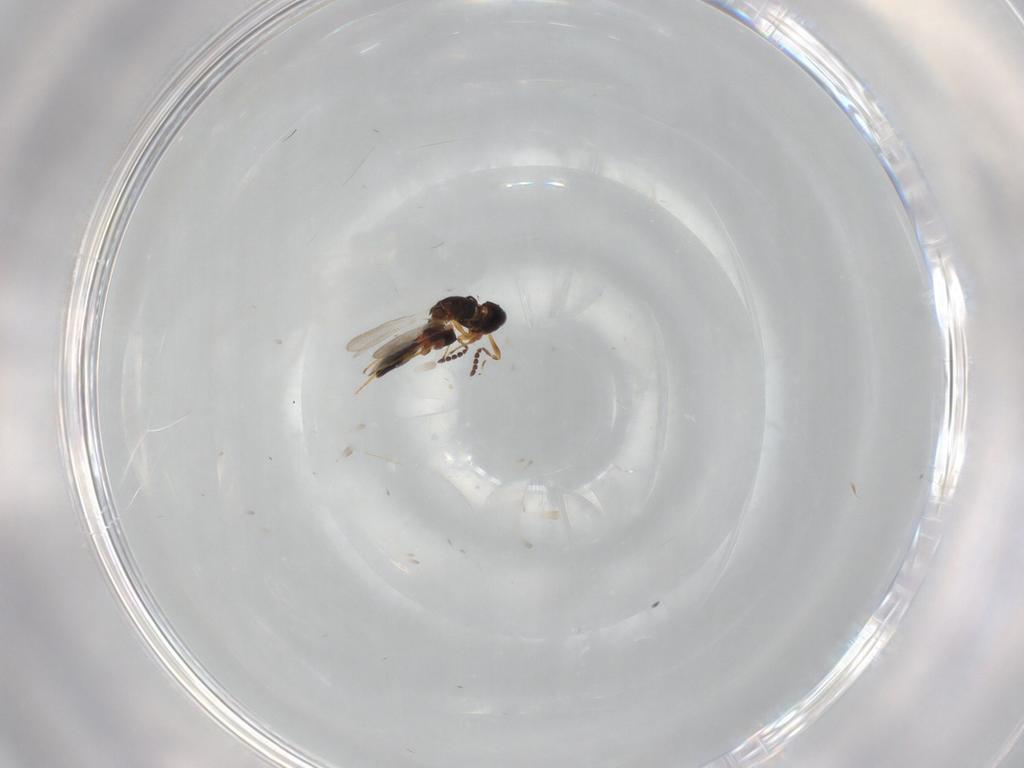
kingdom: Animalia
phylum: Arthropoda
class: Insecta
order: Hymenoptera
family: Platygastridae
